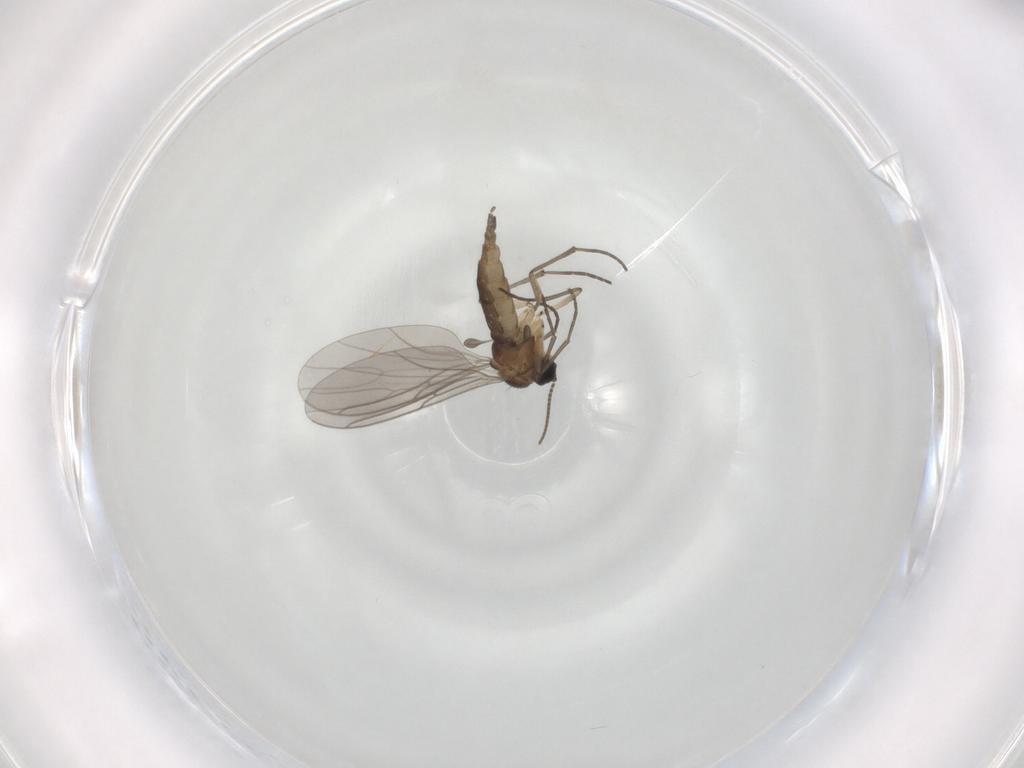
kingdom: Animalia
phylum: Arthropoda
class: Insecta
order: Diptera
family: Sciaridae
